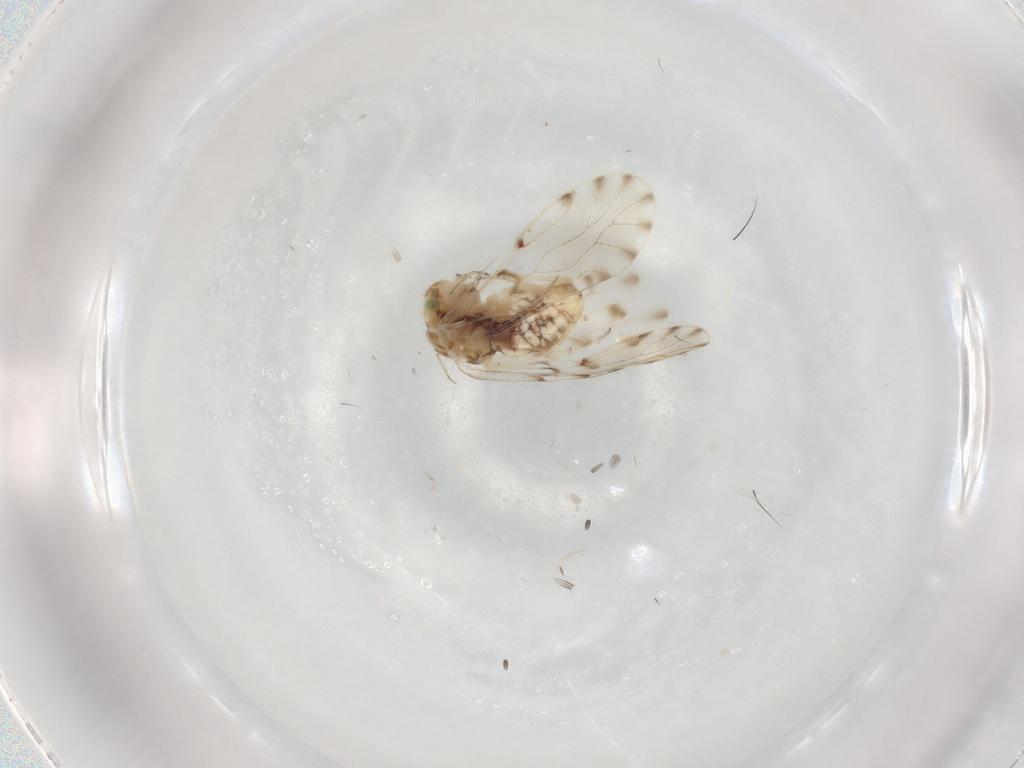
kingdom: Animalia
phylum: Arthropoda
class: Insecta
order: Psocodea
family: Ectopsocidae
